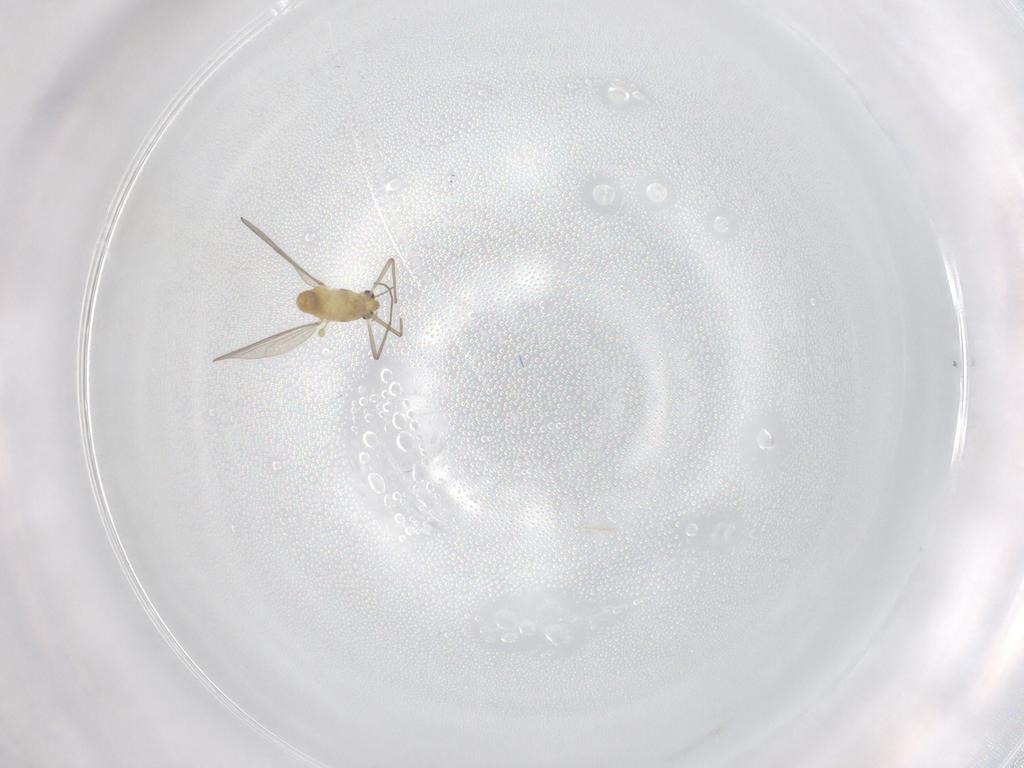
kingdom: Animalia
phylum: Arthropoda
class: Insecta
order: Diptera
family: Chironomidae
